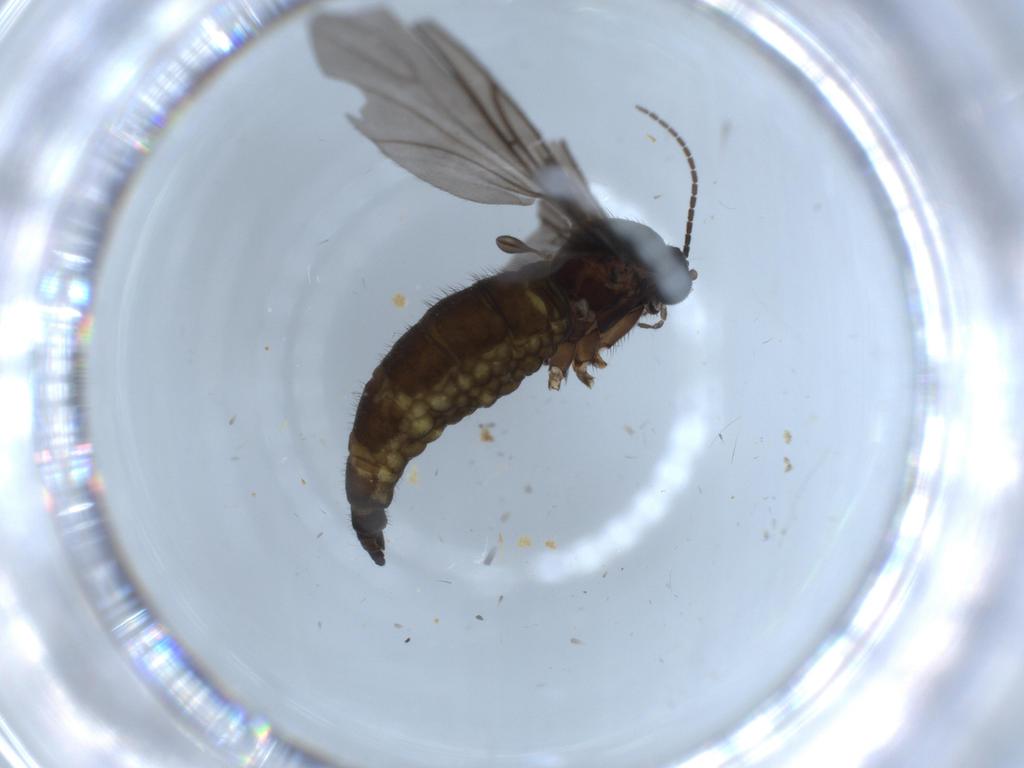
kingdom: Animalia
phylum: Arthropoda
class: Insecta
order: Diptera
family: Sciaridae
